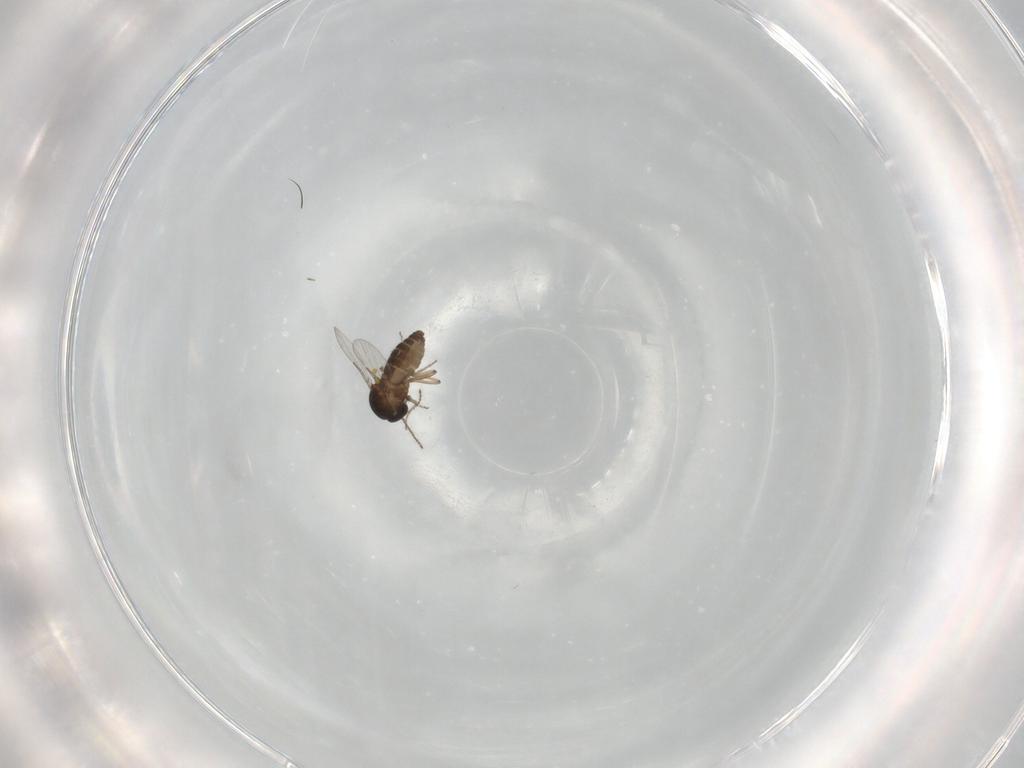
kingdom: Animalia
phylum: Arthropoda
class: Insecta
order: Diptera
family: Ceratopogonidae
